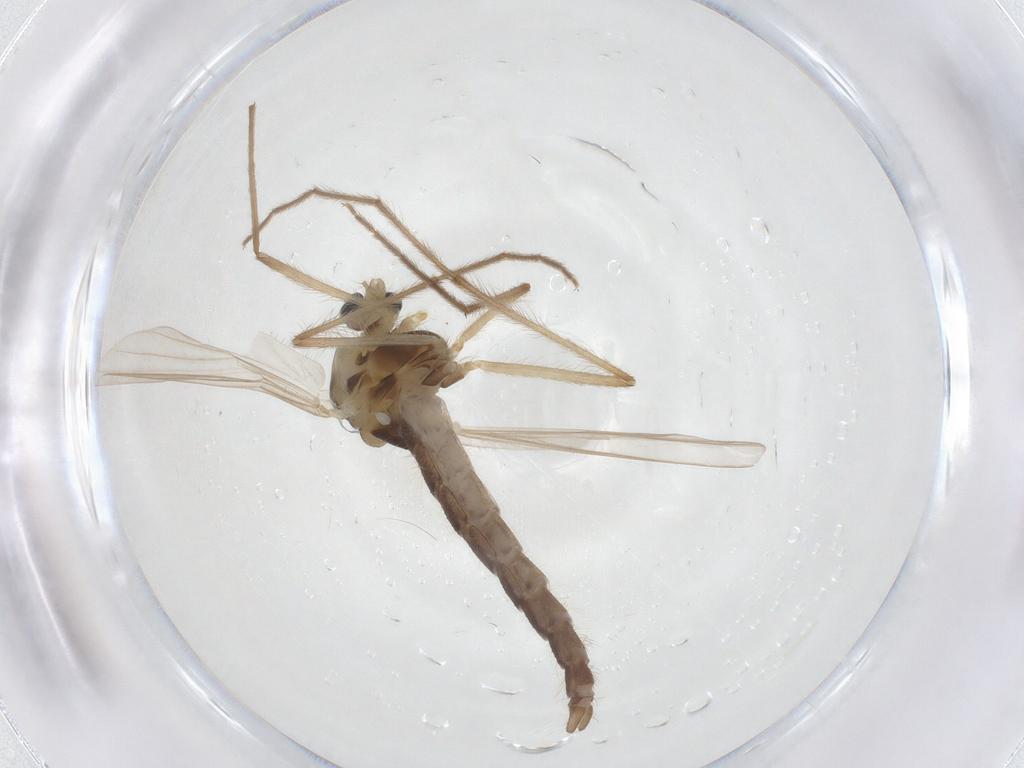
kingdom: Animalia
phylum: Arthropoda
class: Insecta
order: Diptera
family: Chironomidae
